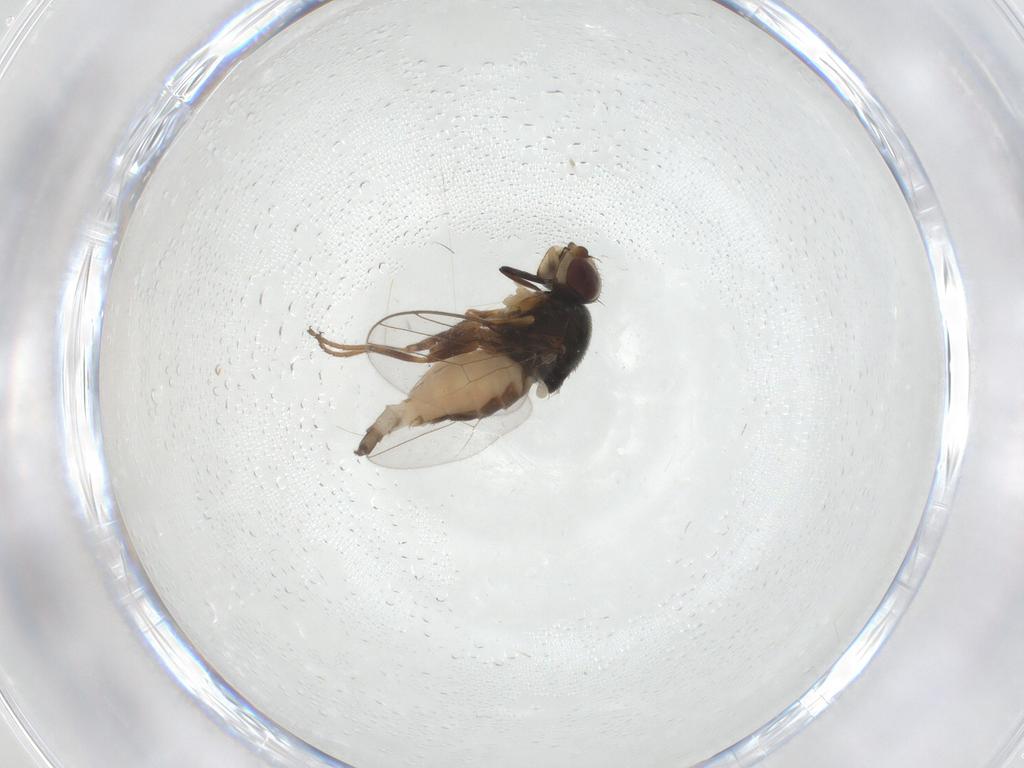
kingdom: Animalia
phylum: Arthropoda
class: Insecta
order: Diptera
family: Chloropidae
